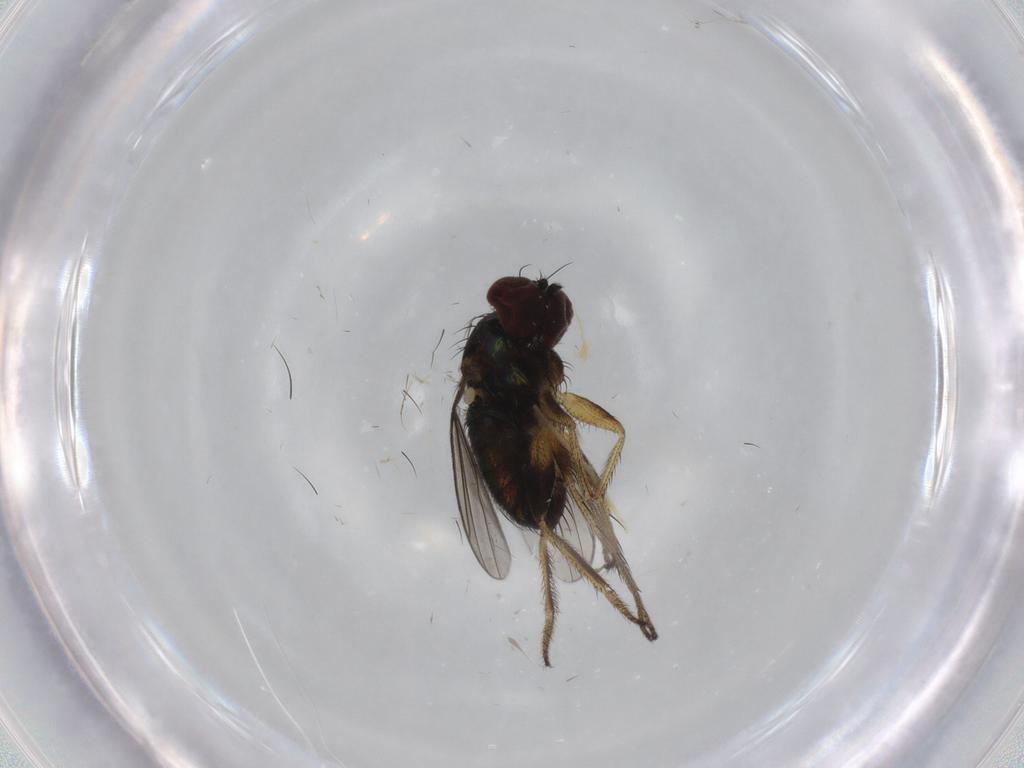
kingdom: Animalia
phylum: Arthropoda
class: Insecta
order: Diptera
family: Dolichopodidae
